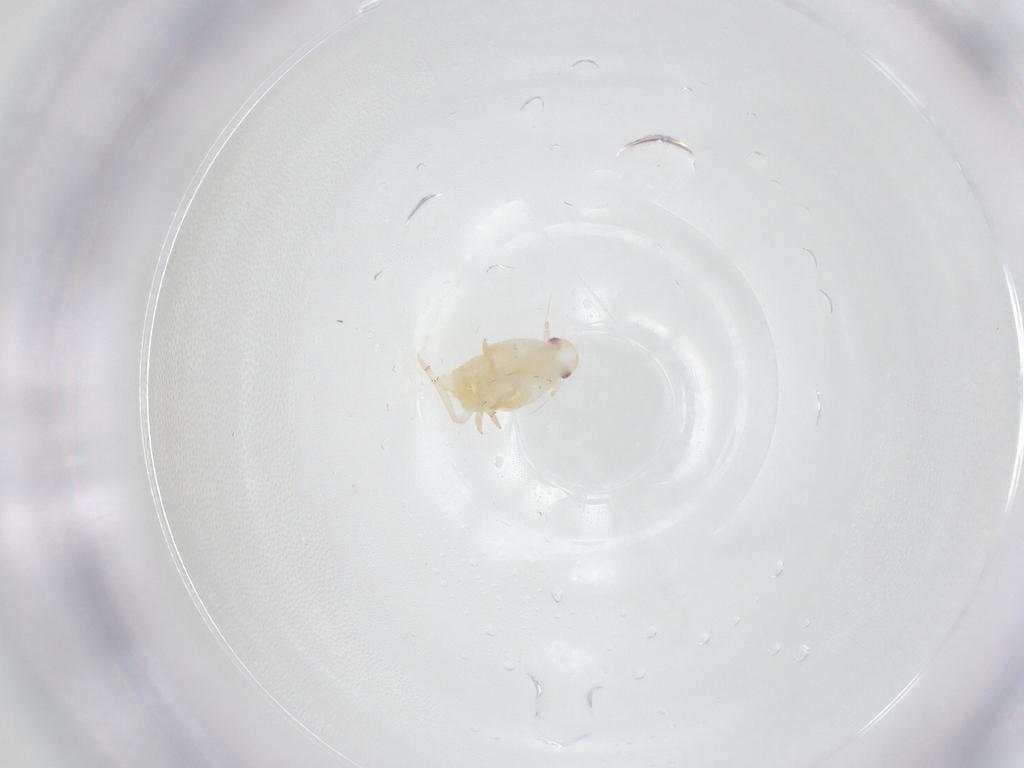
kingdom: Animalia
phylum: Arthropoda
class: Insecta
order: Hemiptera
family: Fulgoroidea_incertae_sedis
